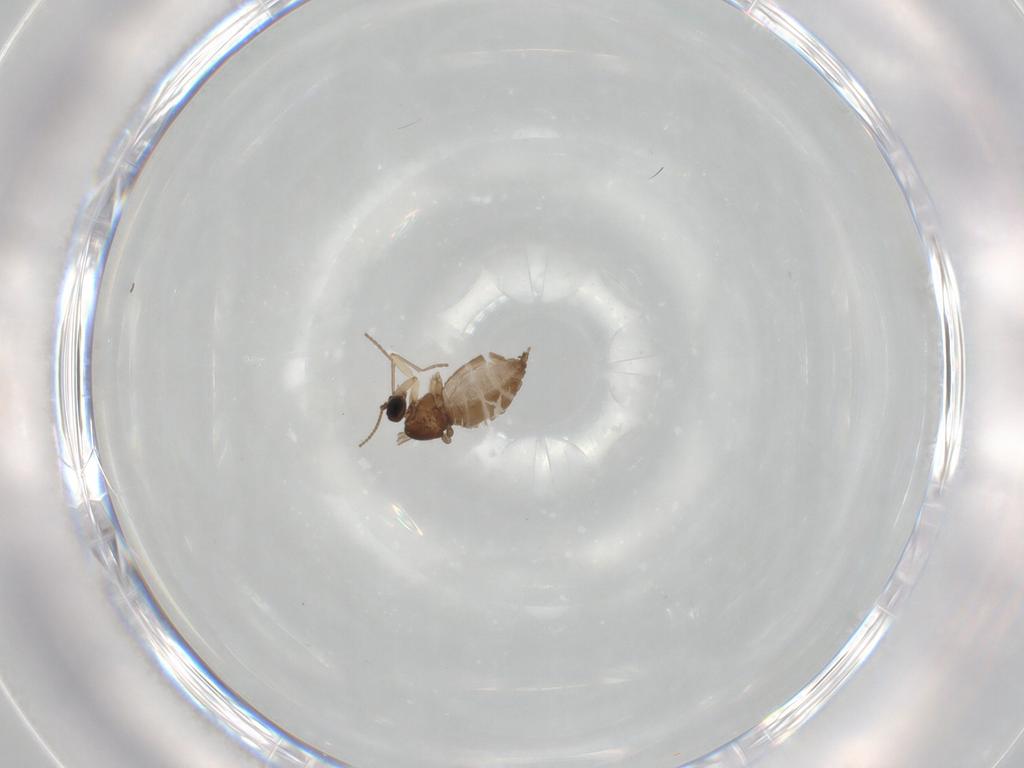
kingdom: Animalia
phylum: Arthropoda
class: Insecta
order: Diptera
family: Sciaridae
